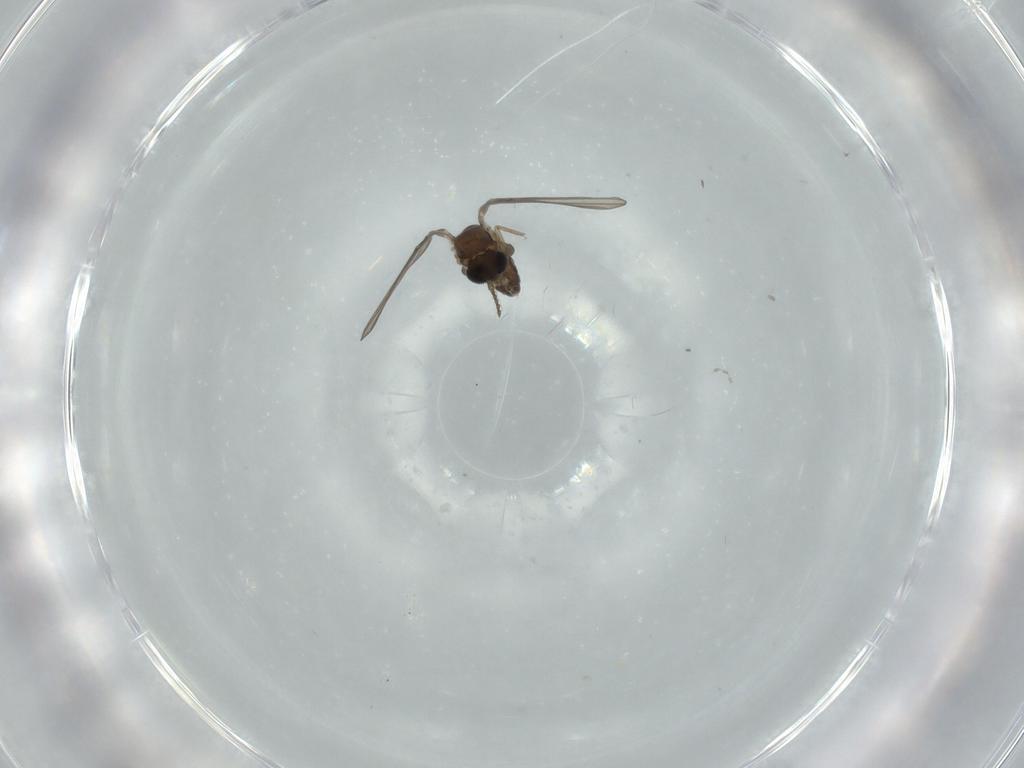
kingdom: Animalia
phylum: Arthropoda
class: Insecta
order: Diptera
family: Psychodidae
